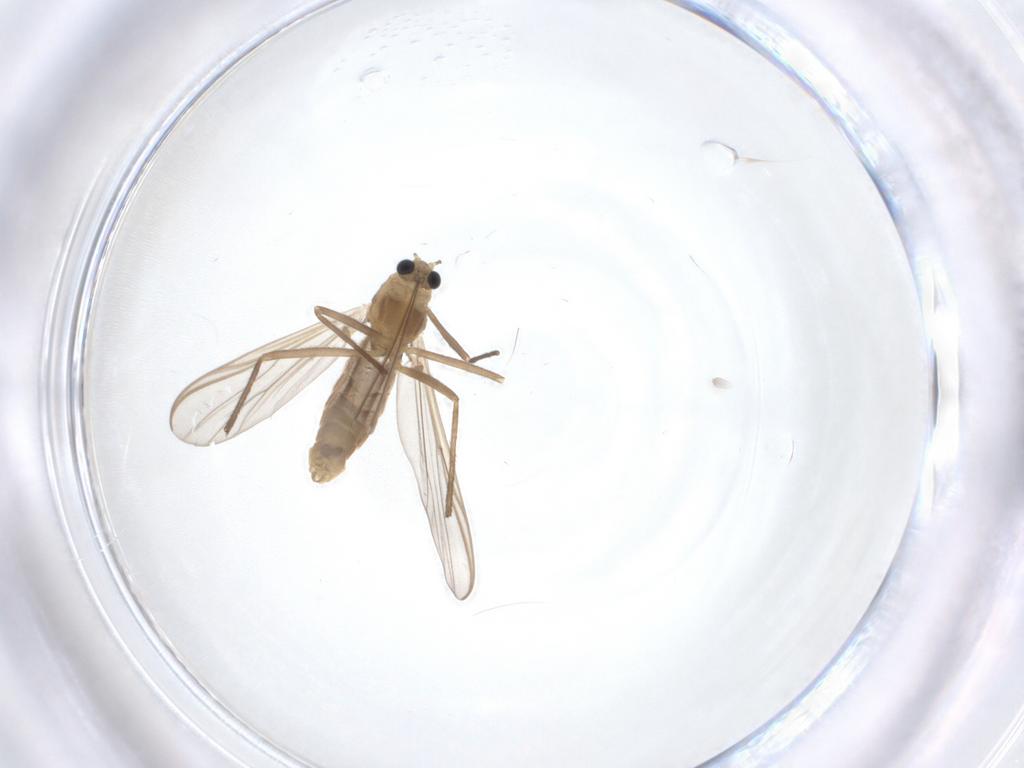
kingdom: Animalia
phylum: Arthropoda
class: Insecta
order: Diptera
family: Chironomidae
